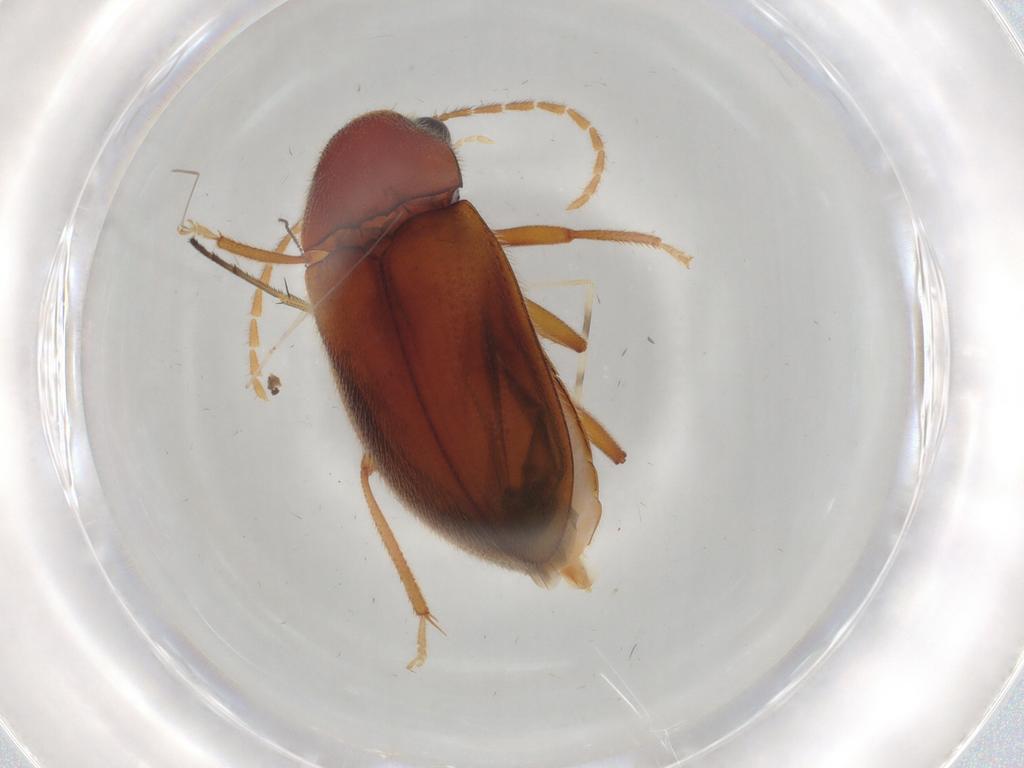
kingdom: Animalia
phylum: Arthropoda
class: Insecta
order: Coleoptera
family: Ptilodactylidae
